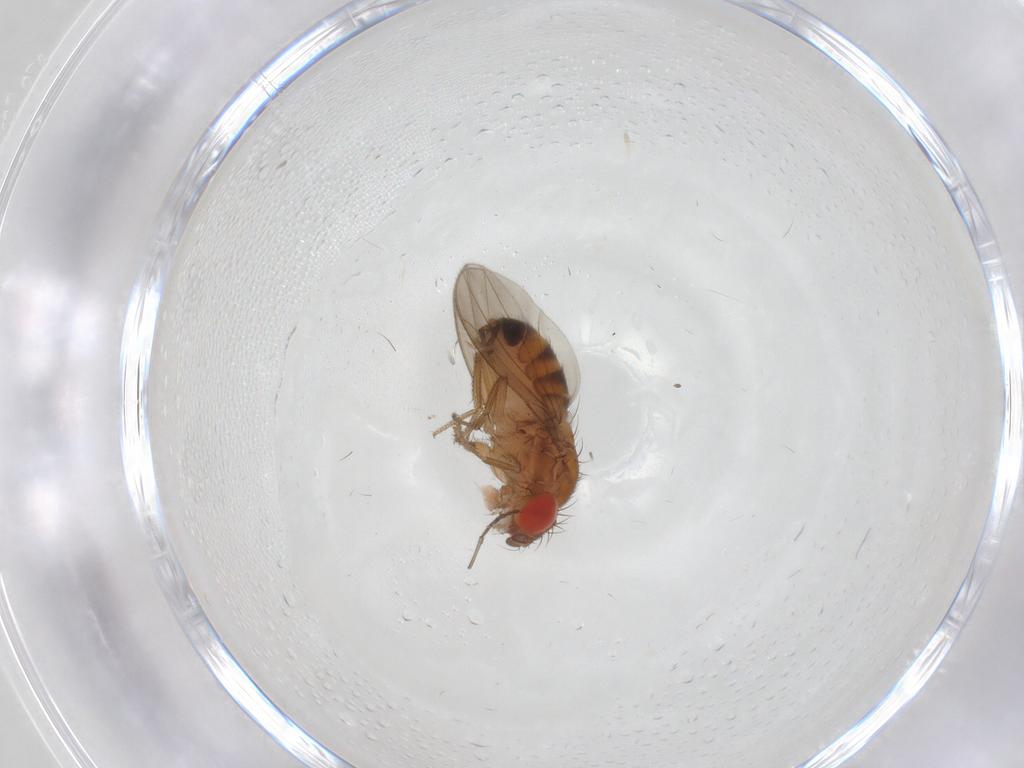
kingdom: Animalia
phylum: Arthropoda
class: Insecta
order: Diptera
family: Drosophilidae
